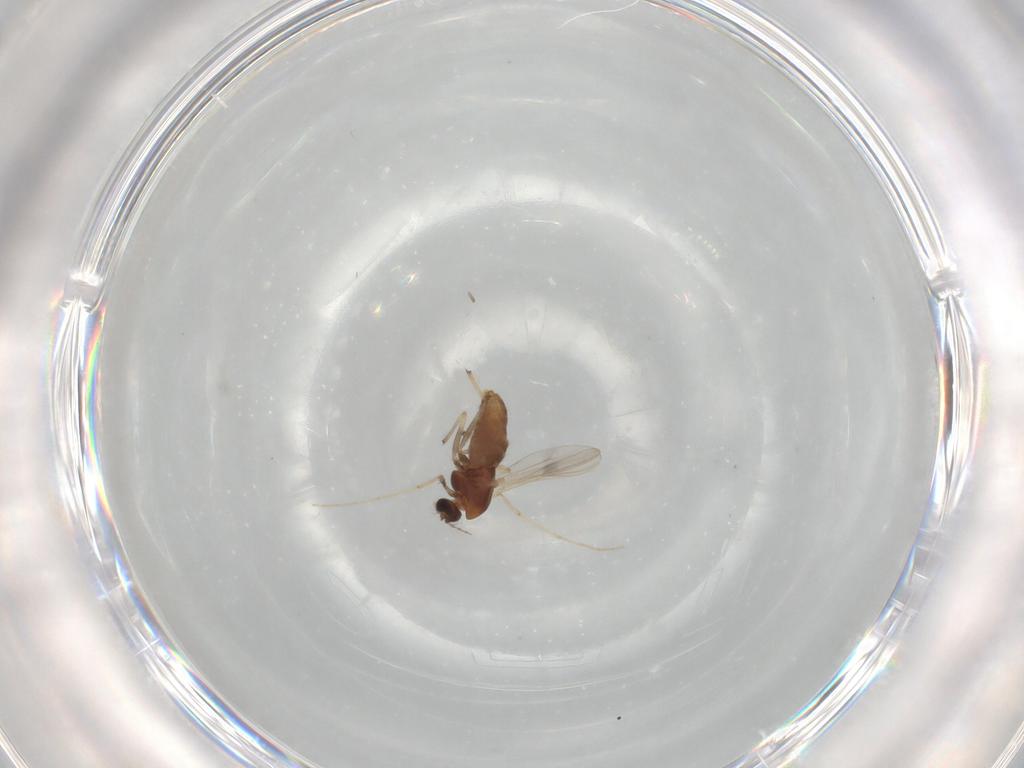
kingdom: Animalia
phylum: Arthropoda
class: Insecta
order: Diptera
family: Chironomidae
